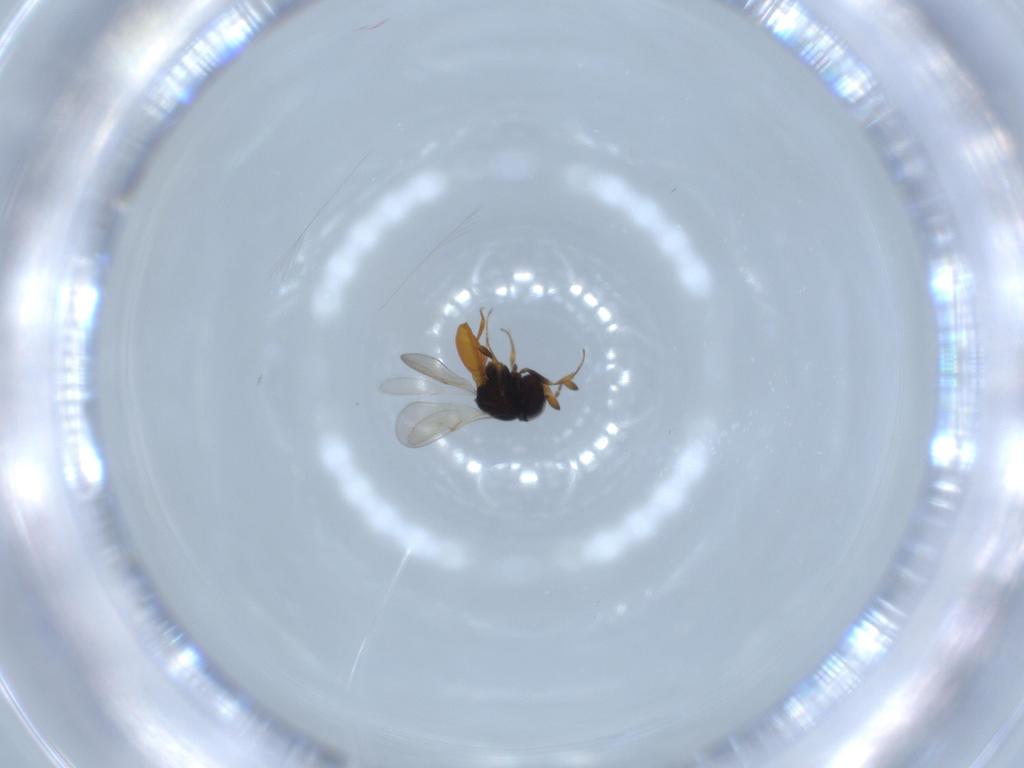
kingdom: Animalia
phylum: Arthropoda
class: Insecta
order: Hymenoptera
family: Scelionidae
